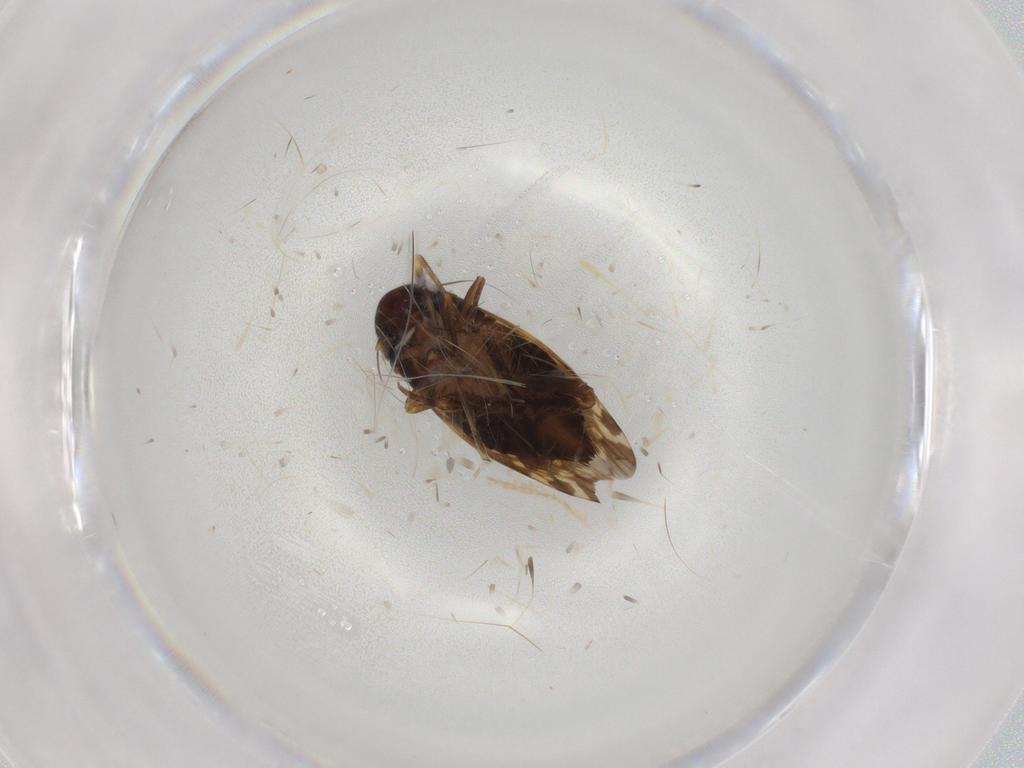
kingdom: Animalia
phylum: Arthropoda
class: Insecta
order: Hemiptera
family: Cicadellidae
